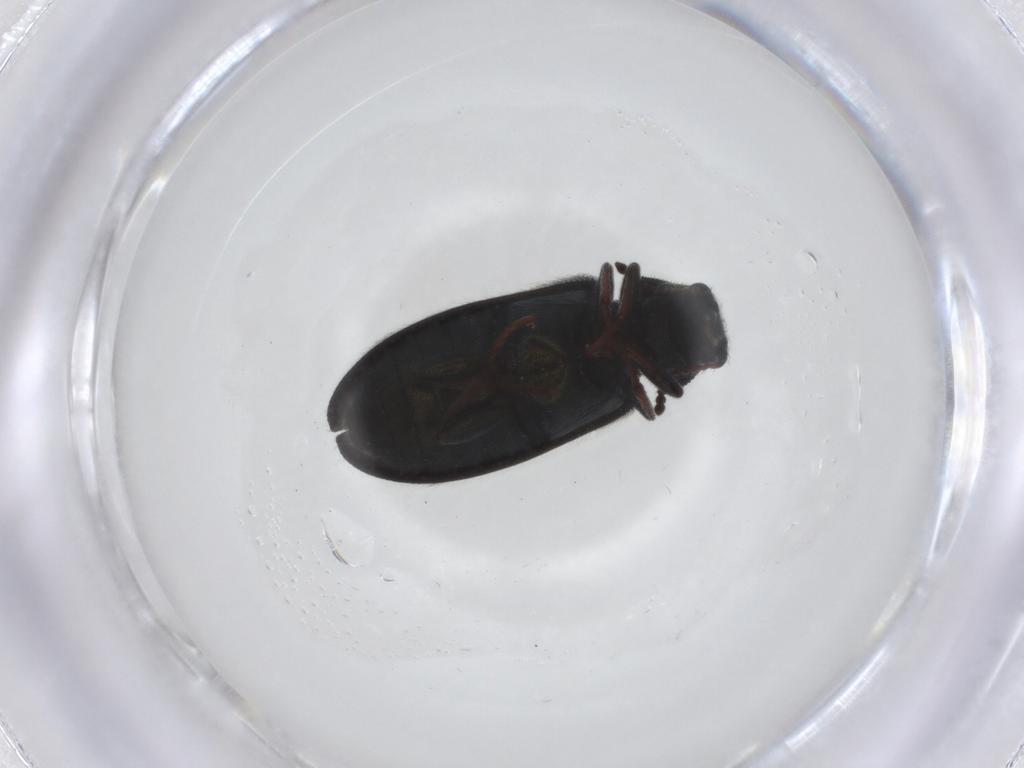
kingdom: Animalia
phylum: Arthropoda
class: Insecta
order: Coleoptera
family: Melyridae
